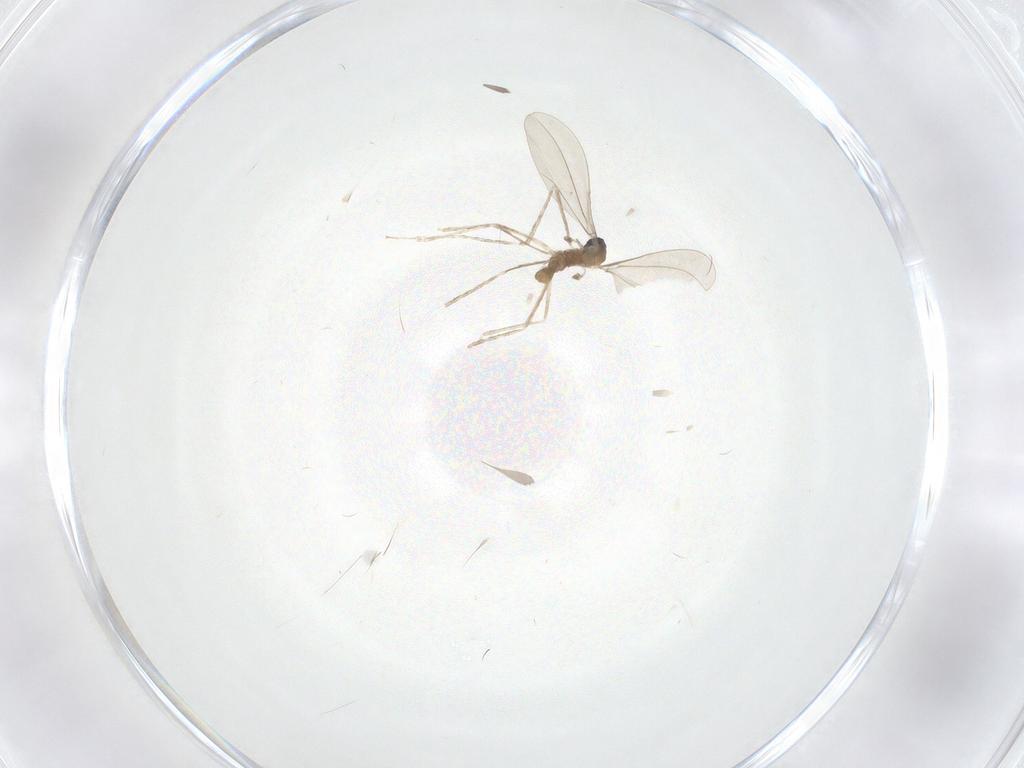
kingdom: Animalia
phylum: Arthropoda
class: Insecta
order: Diptera
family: Cecidomyiidae
